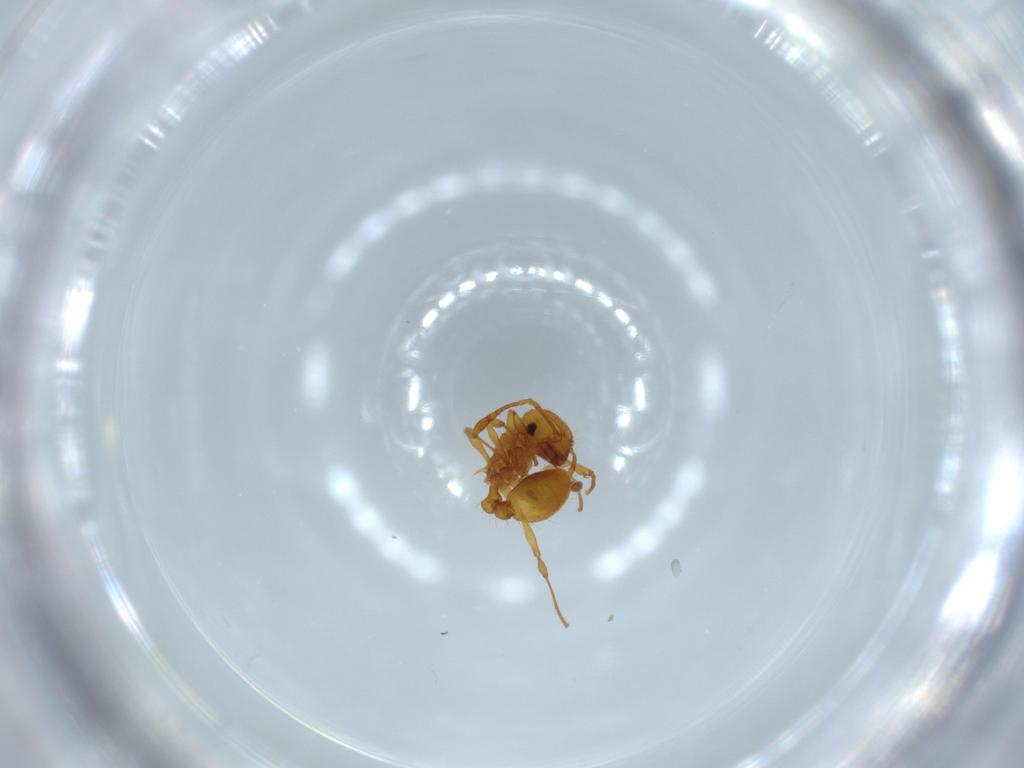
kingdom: Animalia
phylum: Arthropoda
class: Insecta
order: Hymenoptera
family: Formicidae
